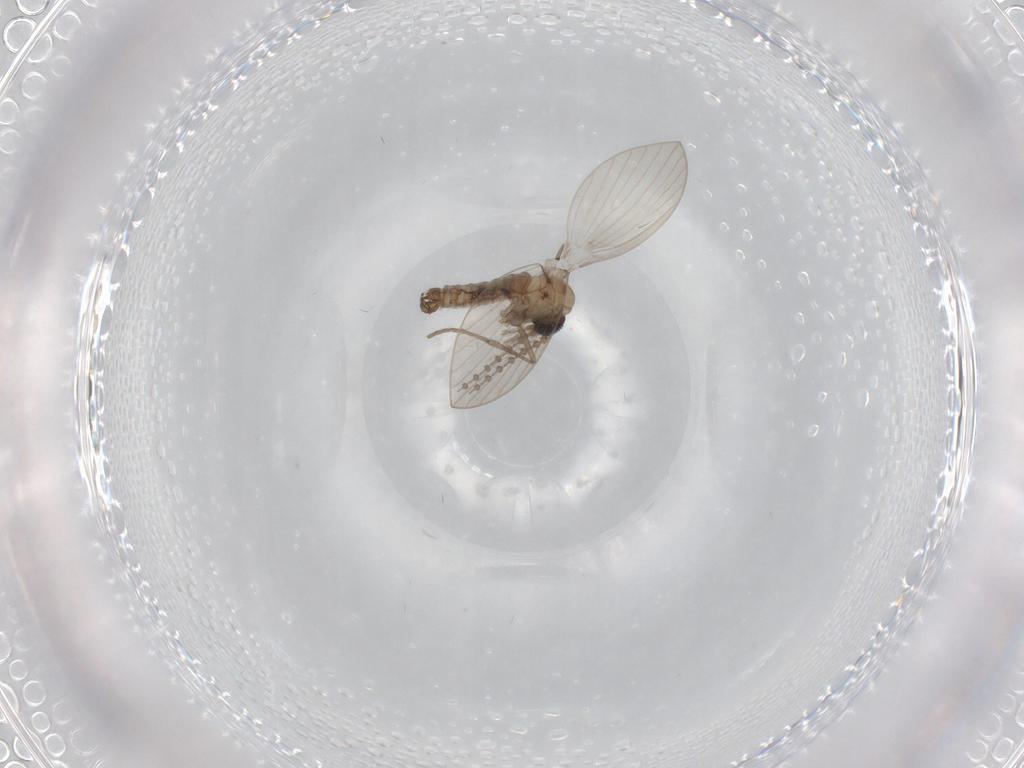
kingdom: Animalia
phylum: Arthropoda
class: Insecta
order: Diptera
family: Psychodidae
